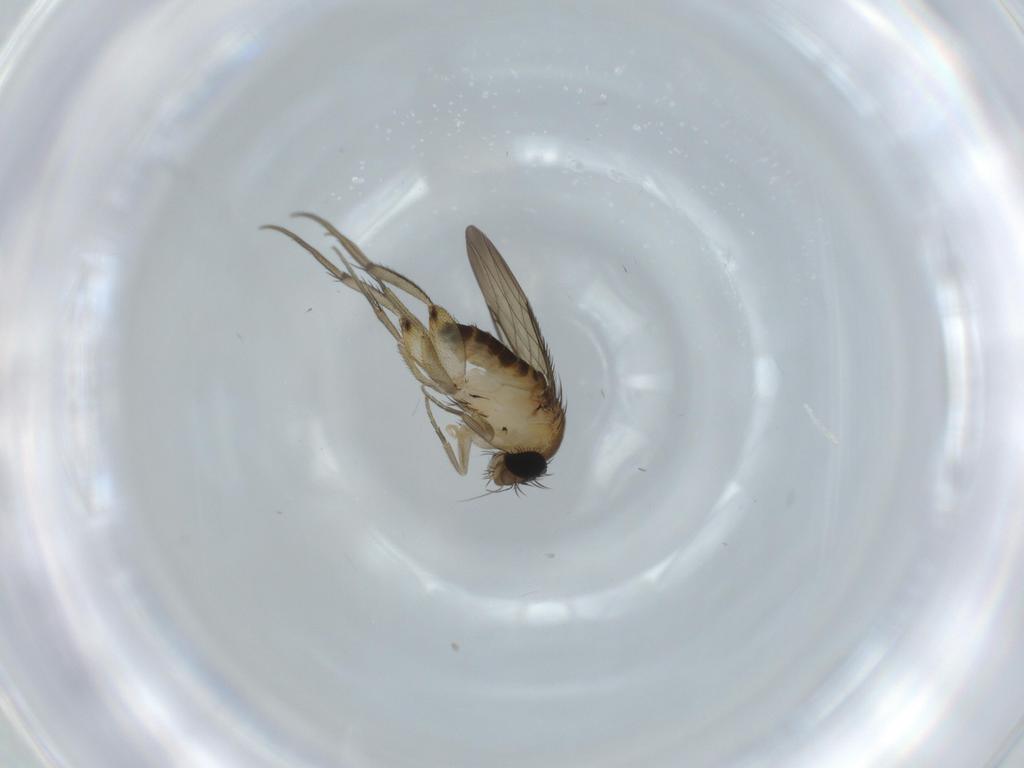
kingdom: Animalia
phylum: Arthropoda
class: Insecta
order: Diptera
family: Phoridae
